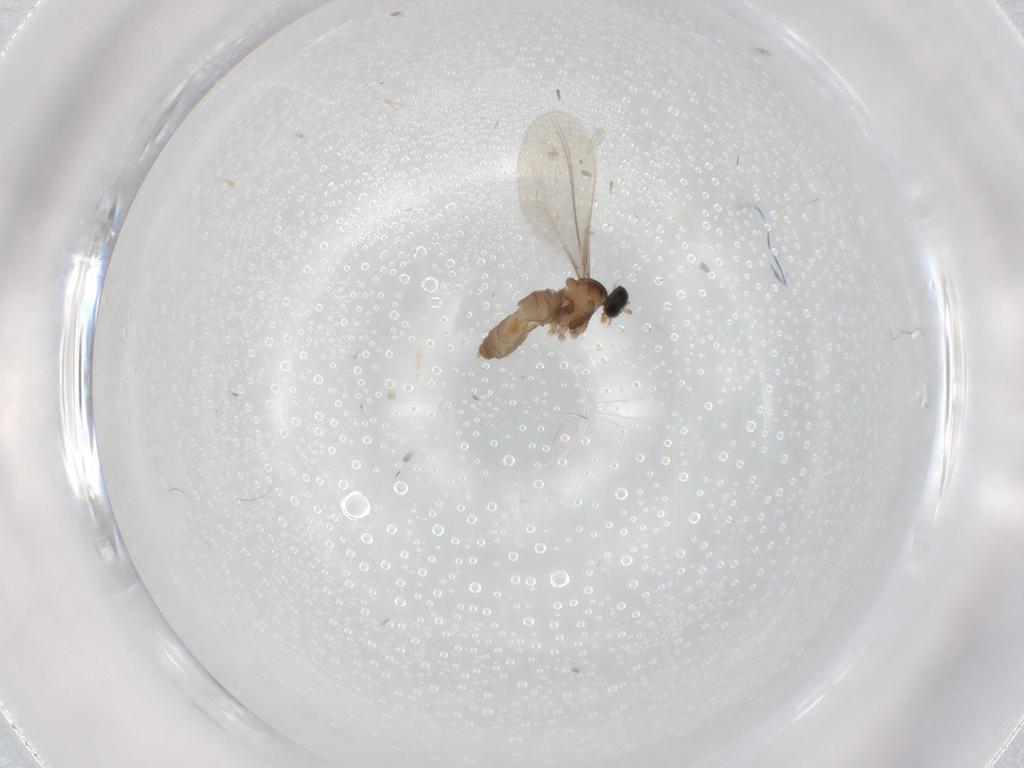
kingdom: Animalia
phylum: Arthropoda
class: Insecta
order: Diptera
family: Cecidomyiidae
